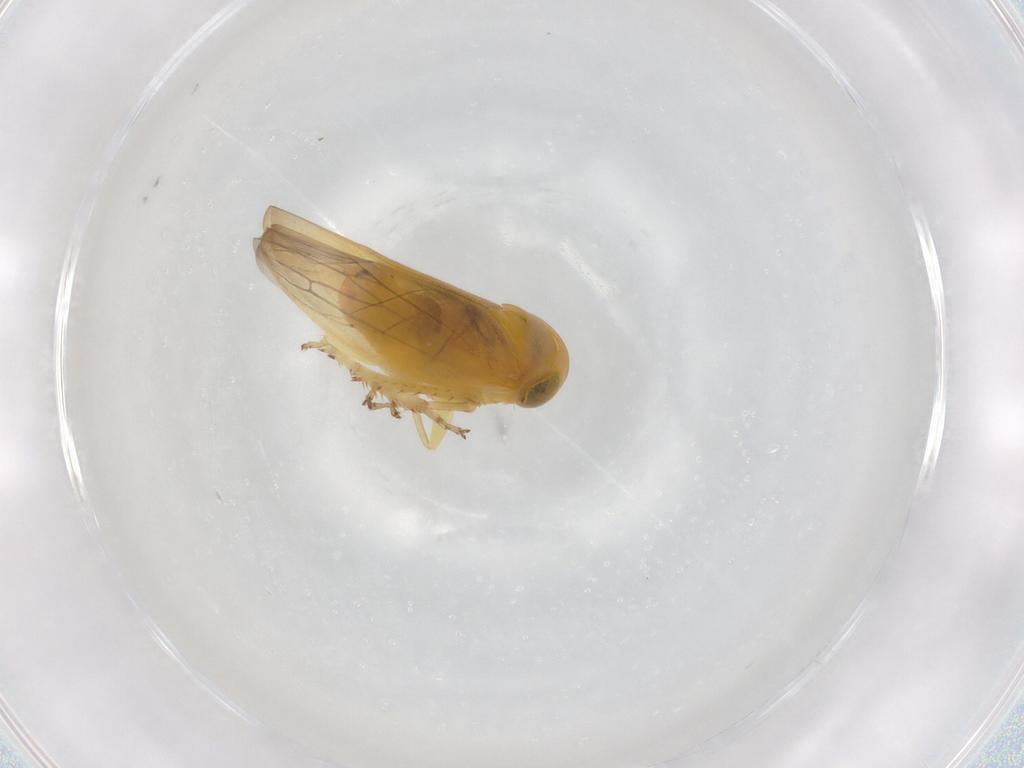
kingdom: Animalia
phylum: Arthropoda
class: Insecta
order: Hemiptera
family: Cicadellidae
